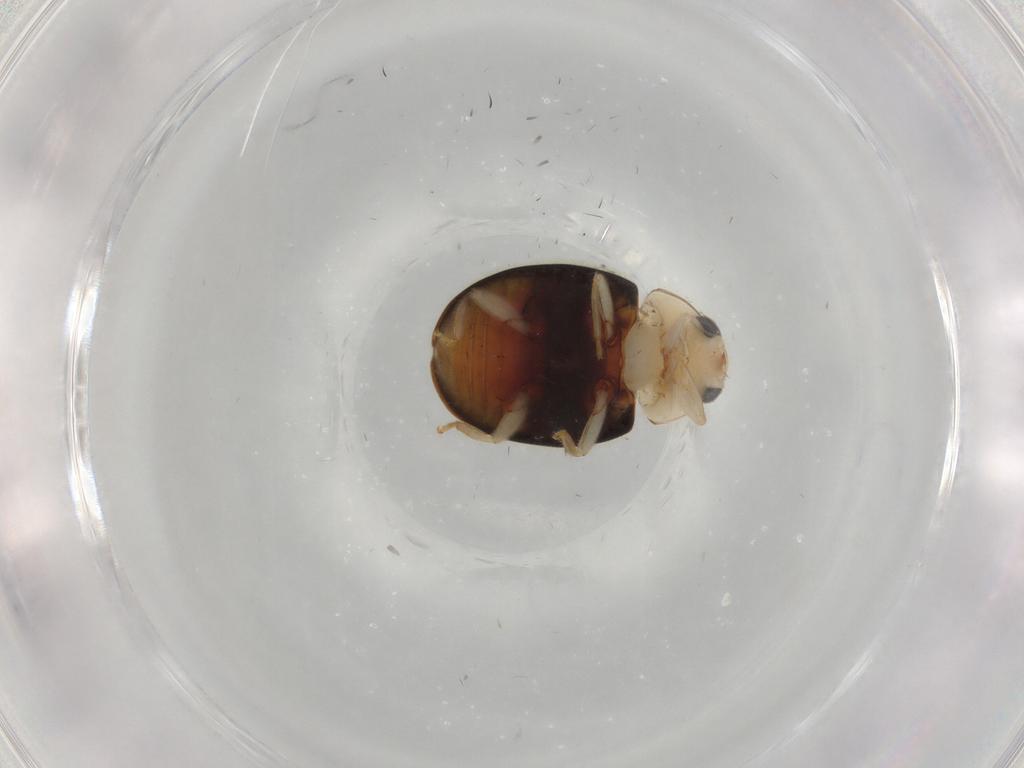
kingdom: Animalia
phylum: Arthropoda
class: Insecta
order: Coleoptera
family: Coccinellidae
